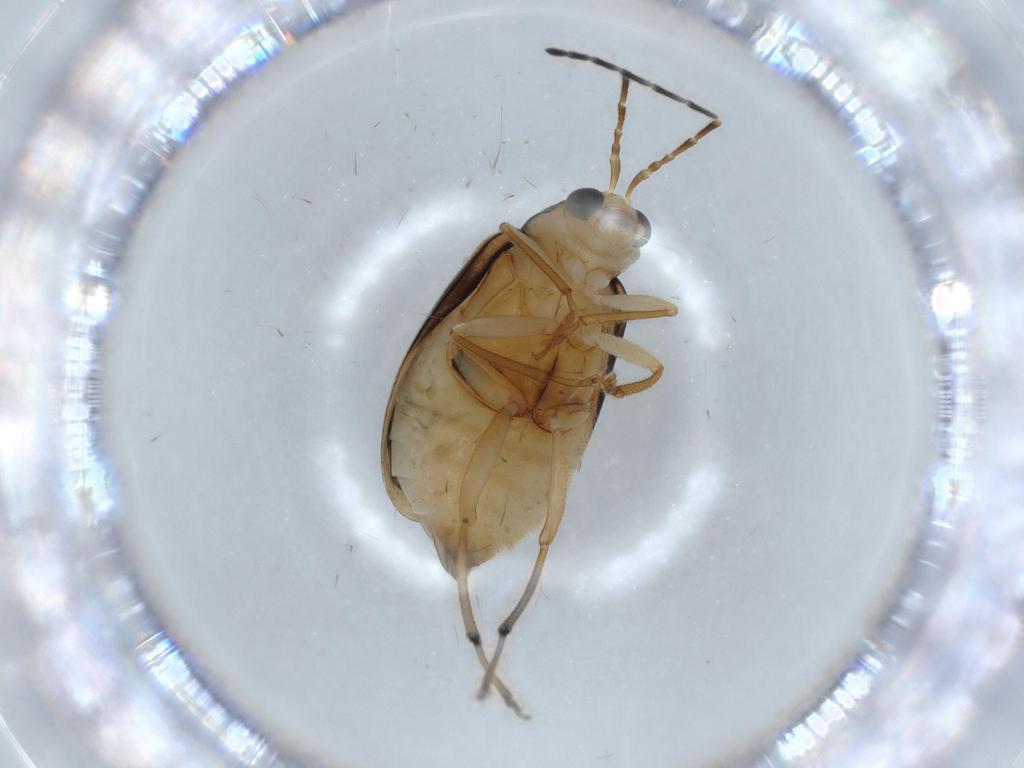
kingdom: Animalia
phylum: Arthropoda
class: Insecta
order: Coleoptera
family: Chrysomelidae
